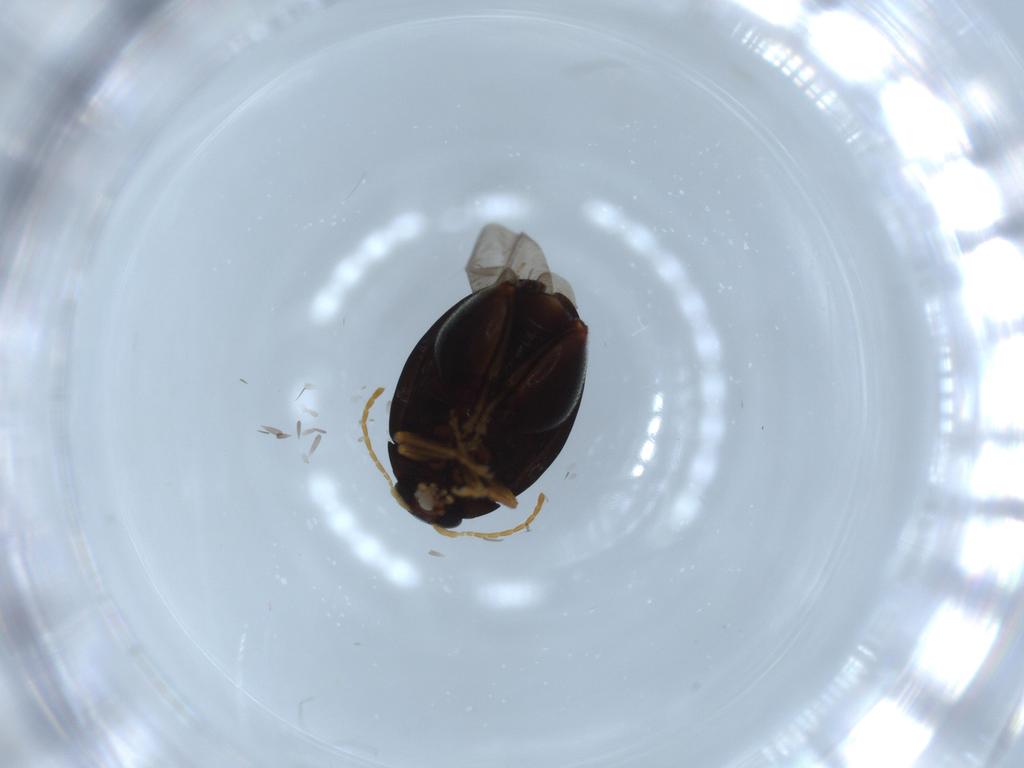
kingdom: Animalia
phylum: Arthropoda
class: Insecta
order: Coleoptera
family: Chrysomelidae
